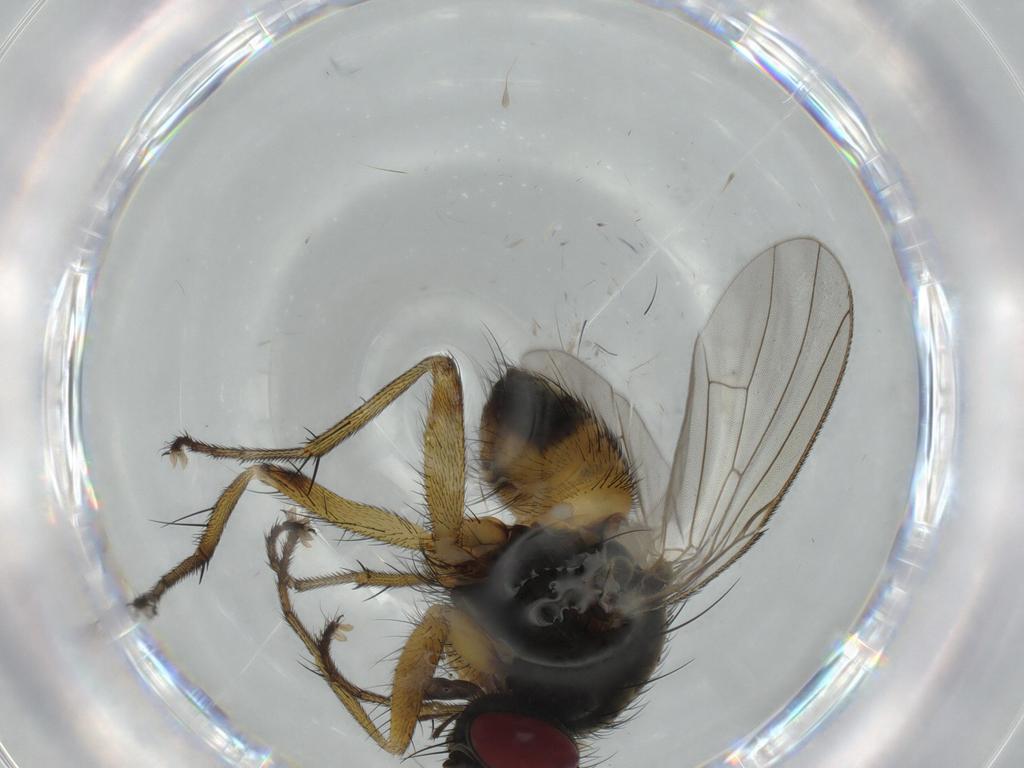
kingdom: Animalia
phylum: Arthropoda
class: Insecta
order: Diptera
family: Muscidae
